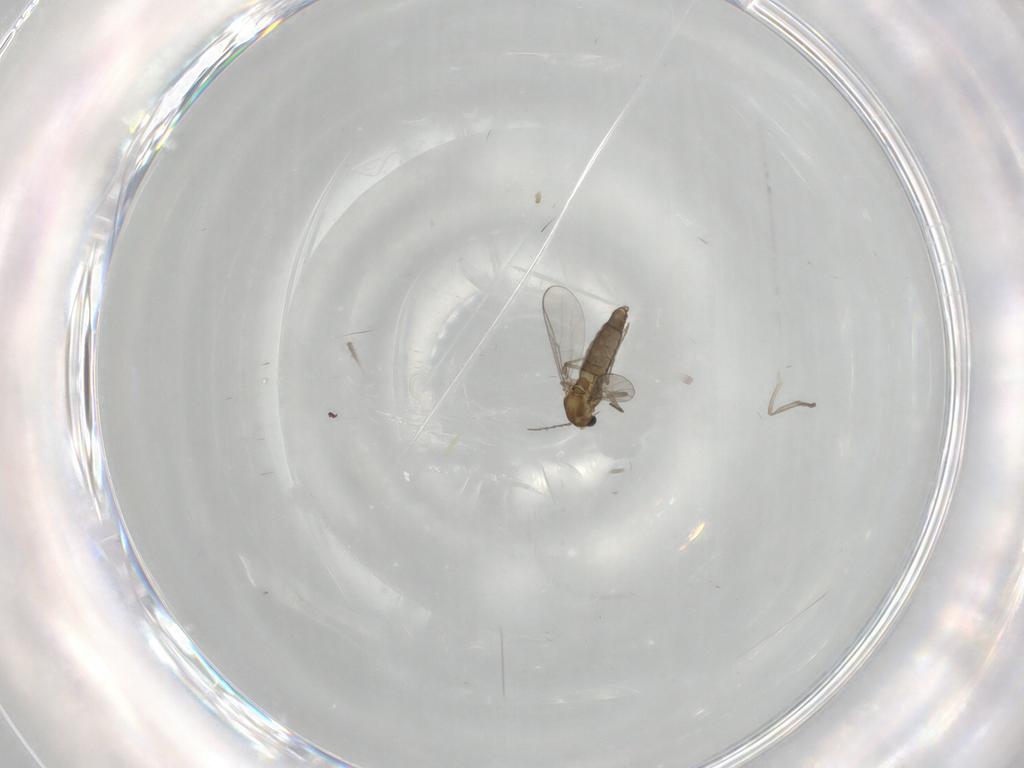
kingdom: Animalia
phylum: Arthropoda
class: Insecta
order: Diptera
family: Chironomidae
